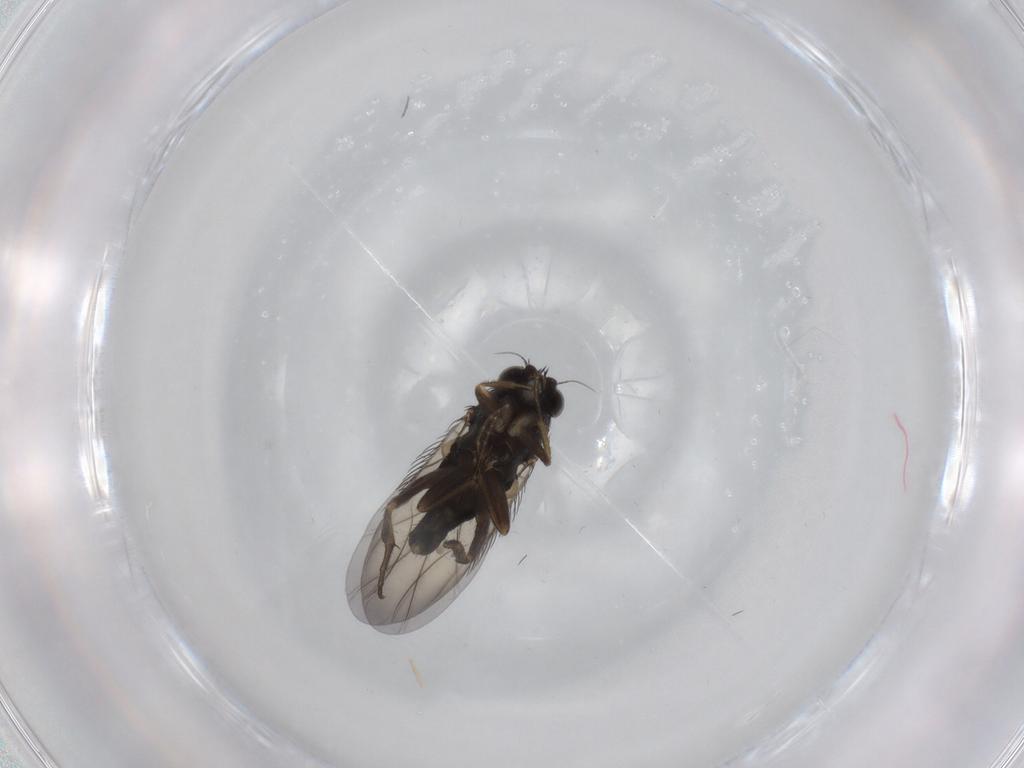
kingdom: Animalia
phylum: Arthropoda
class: Insecta
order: Diptera
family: Phoridae
